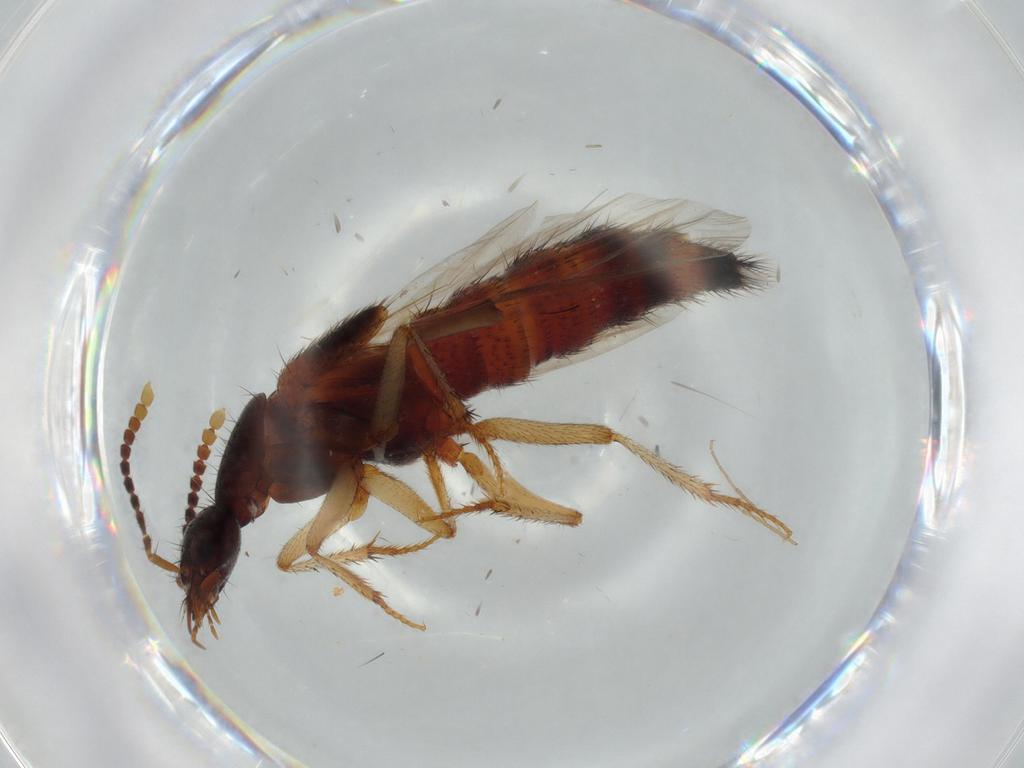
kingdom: Animalia
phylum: Arthropoda
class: Insecta
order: Coleoptera
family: Staphylinidae
